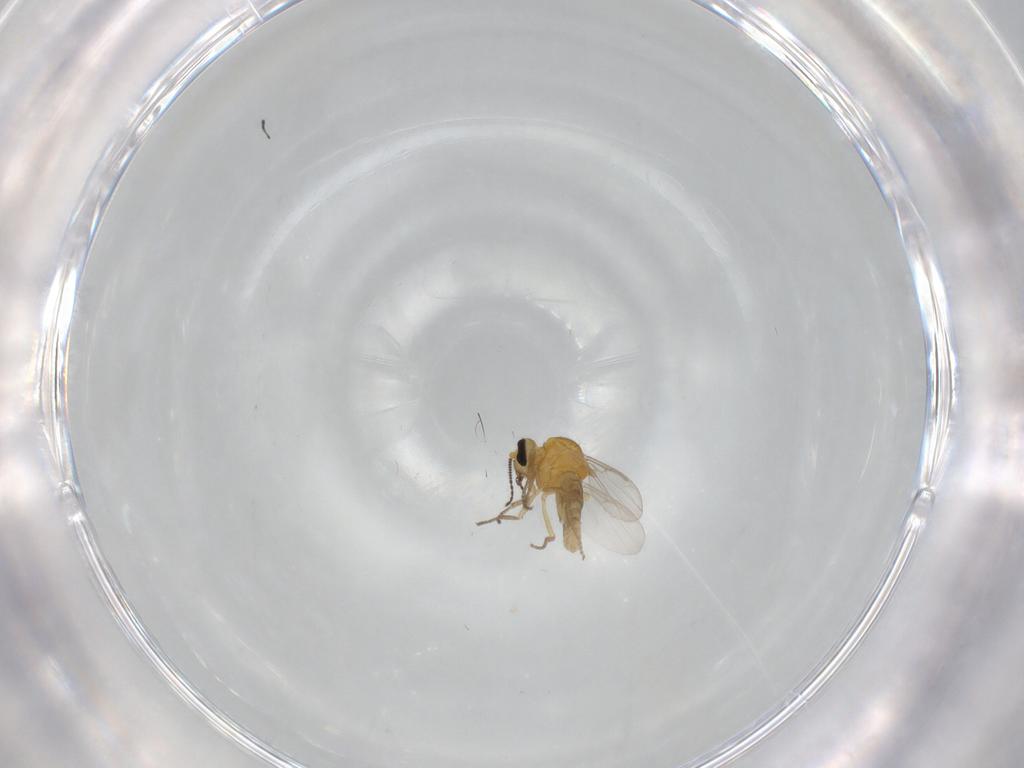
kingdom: Animalia
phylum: Arthropoda
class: Insecta
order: Diptera
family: Ceratopogonidae
